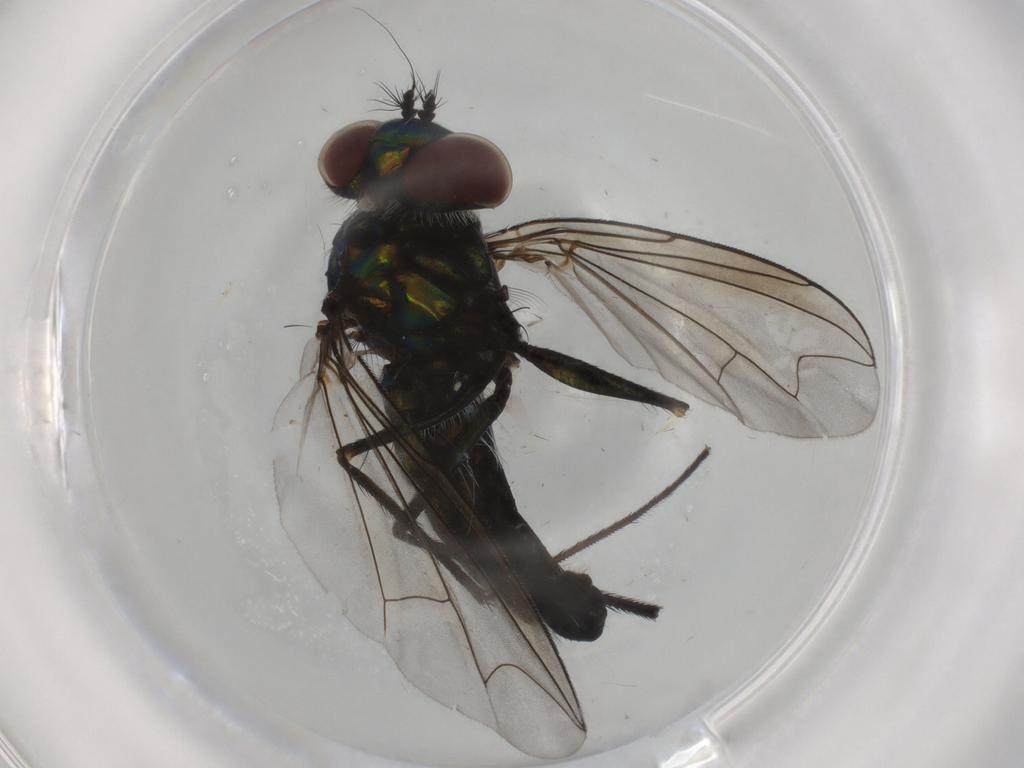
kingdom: Animalia
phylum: Arthropoda
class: Insecta
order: Diptera
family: Dolichopodidae
